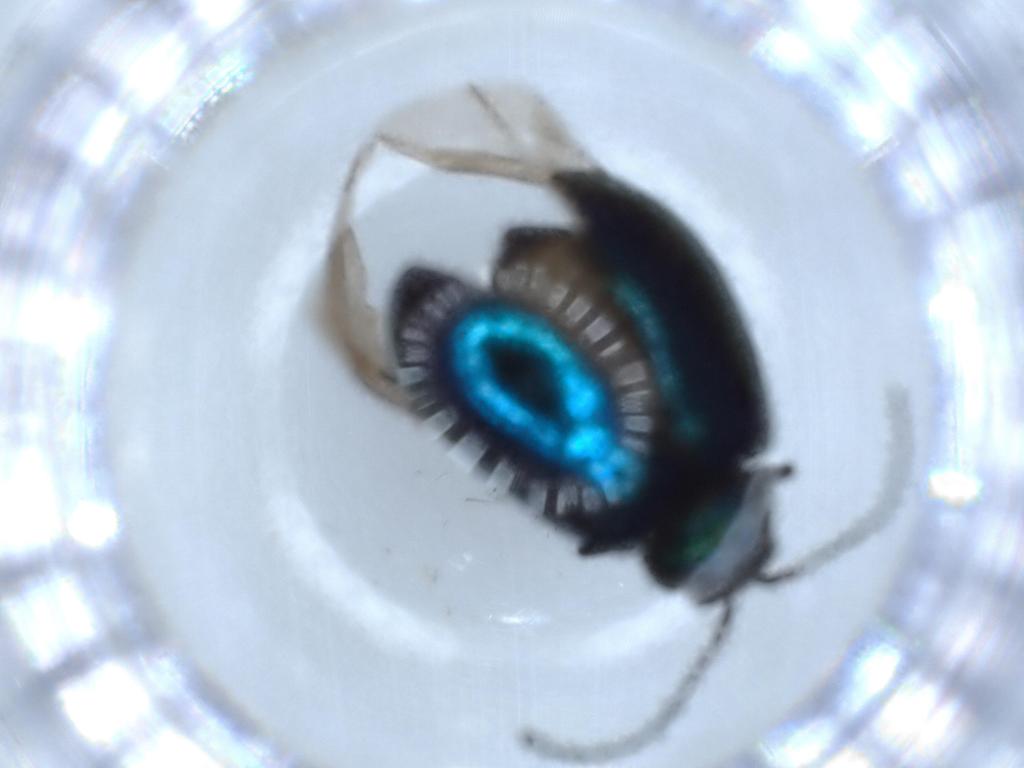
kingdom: Animalia
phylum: Arthropoda
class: Insecta
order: Coleoptera
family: Chrysomelidae
